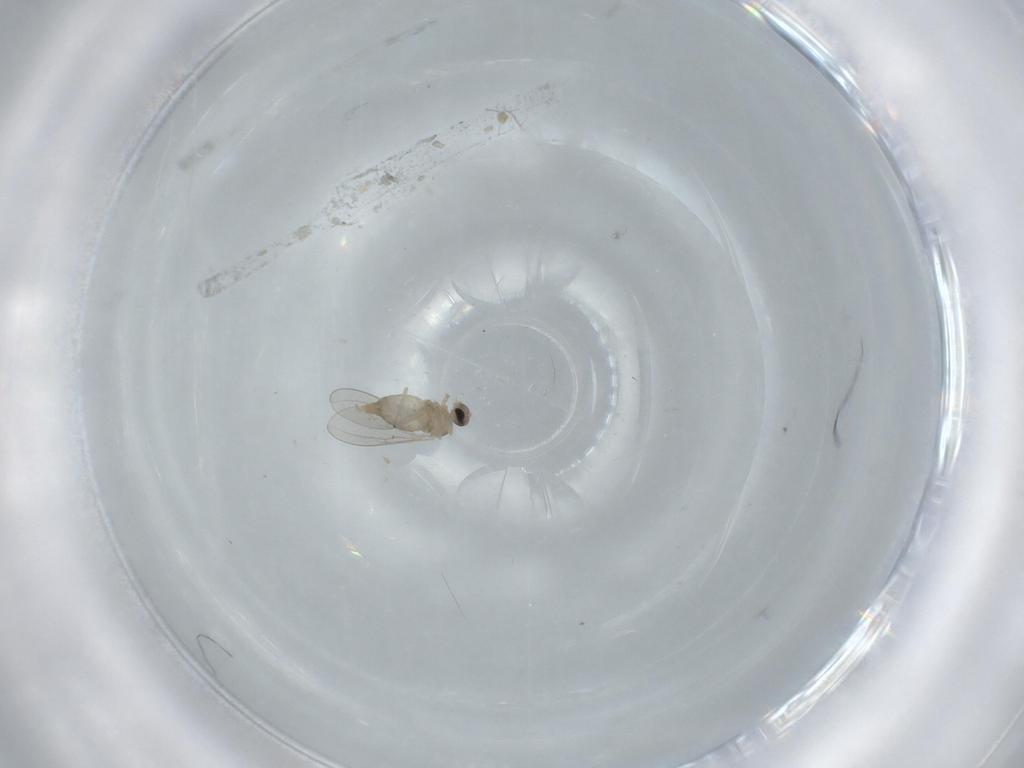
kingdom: Animalia
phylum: Arthropoda
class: Insecta
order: Diptera
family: Cecidomyiidae
